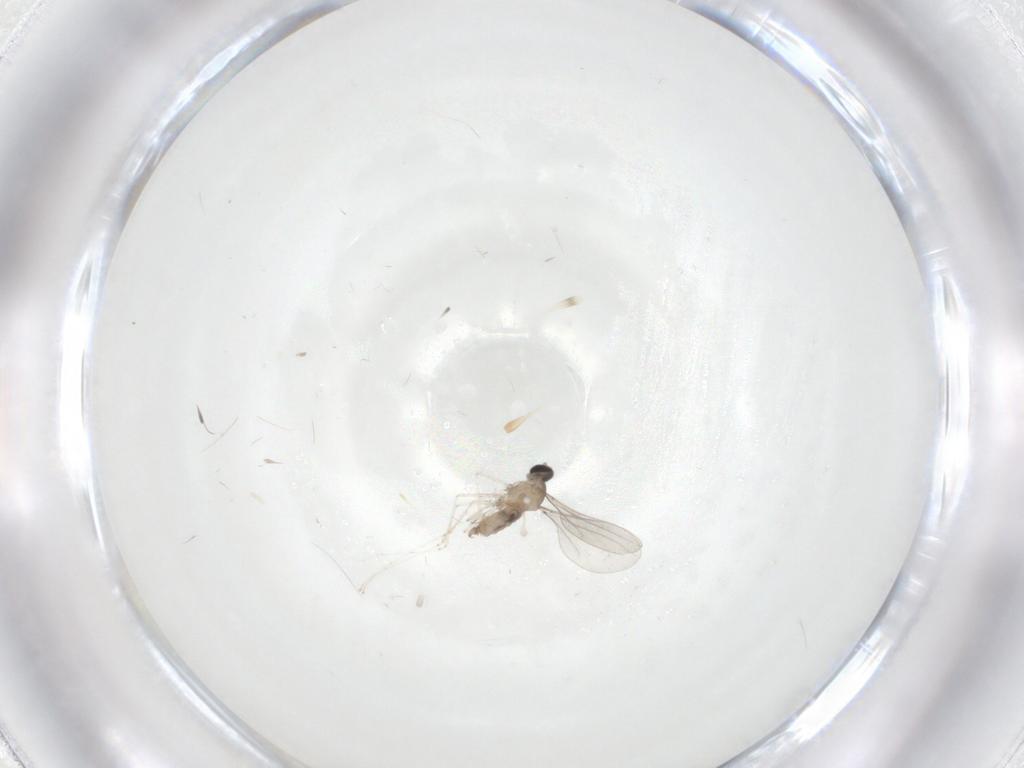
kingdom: Animalia
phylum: Arthropoda
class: Insecta
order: Diptera
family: Cecidomyiidae
